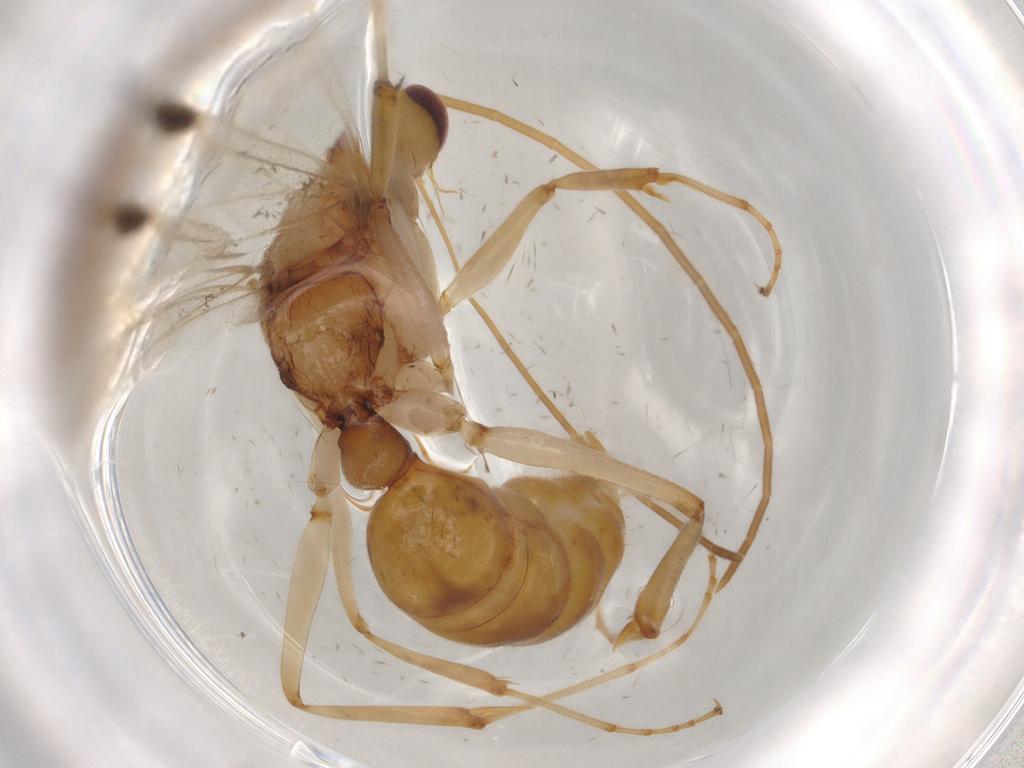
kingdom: Animalia
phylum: Arthropoda
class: Insecta
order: Hymenoptera
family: Formicidae
